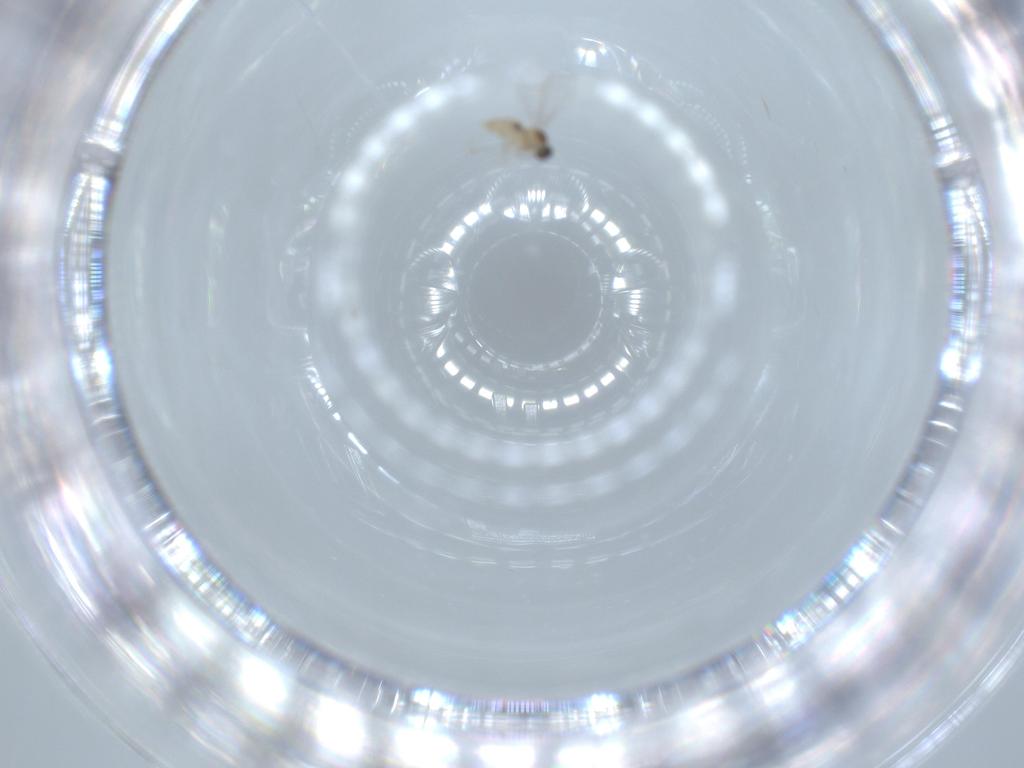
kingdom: Animalia
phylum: Arthropoda
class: Insecta
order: Diptera
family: Cecidomyiidae
